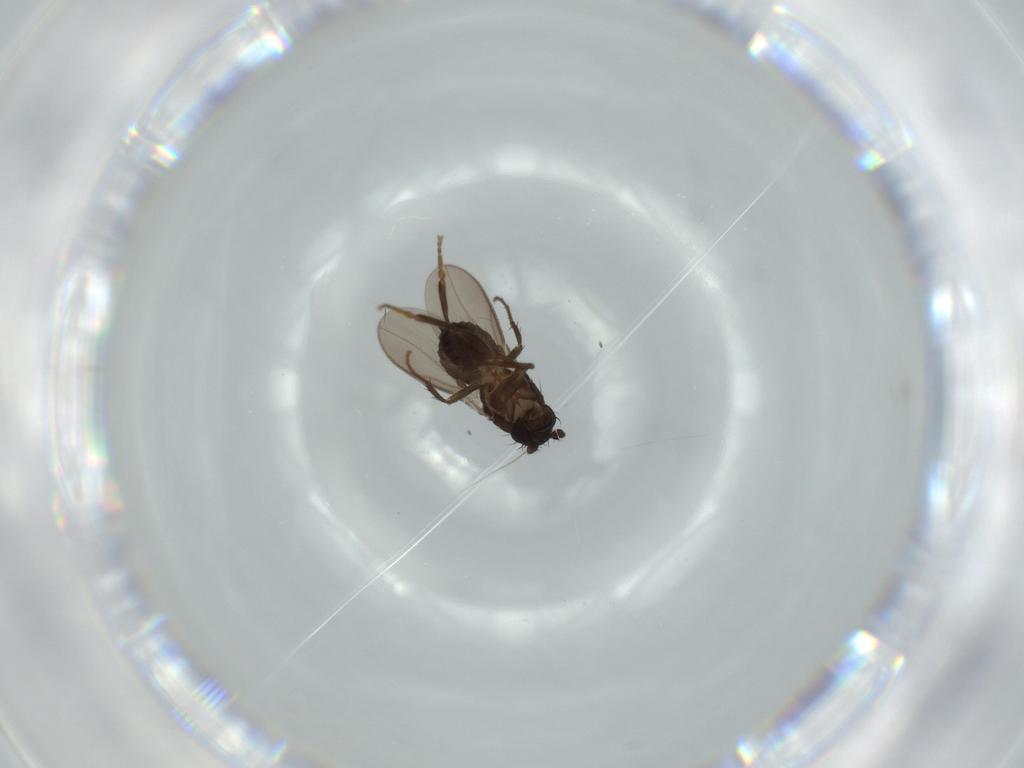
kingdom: Animalia
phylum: Arthropoda
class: Insecta
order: Diptera
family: Sphaeroceridae
